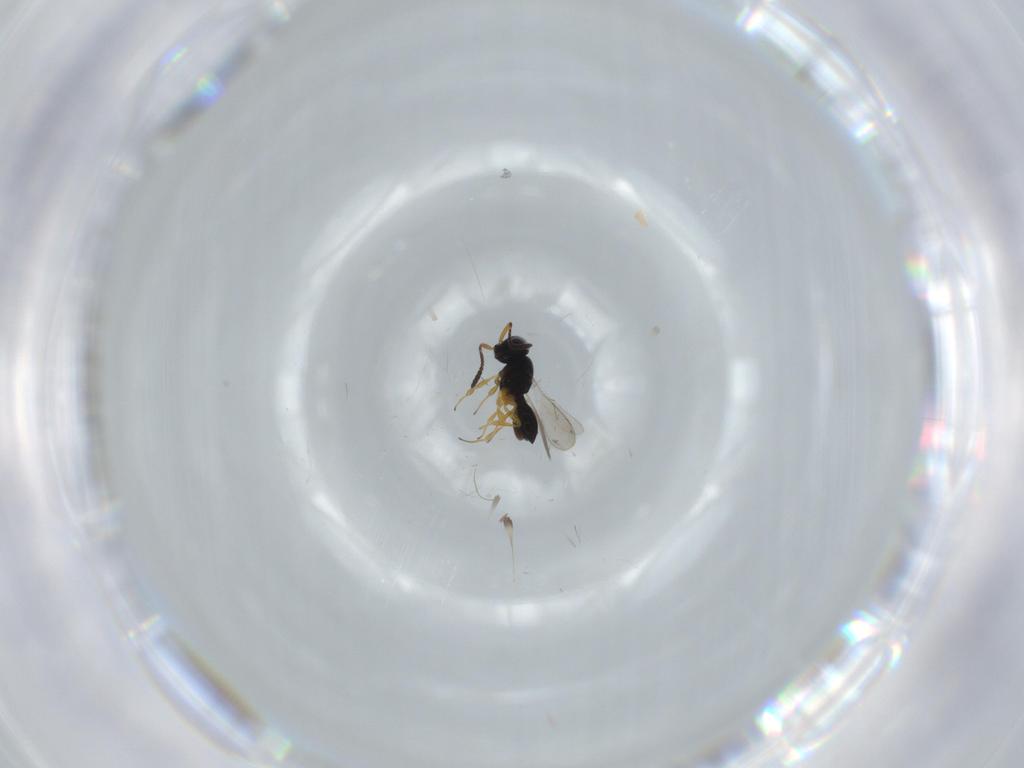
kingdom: Animalia
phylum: Arthropoda
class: Insecta
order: Hymenoptera
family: Scelionidae
